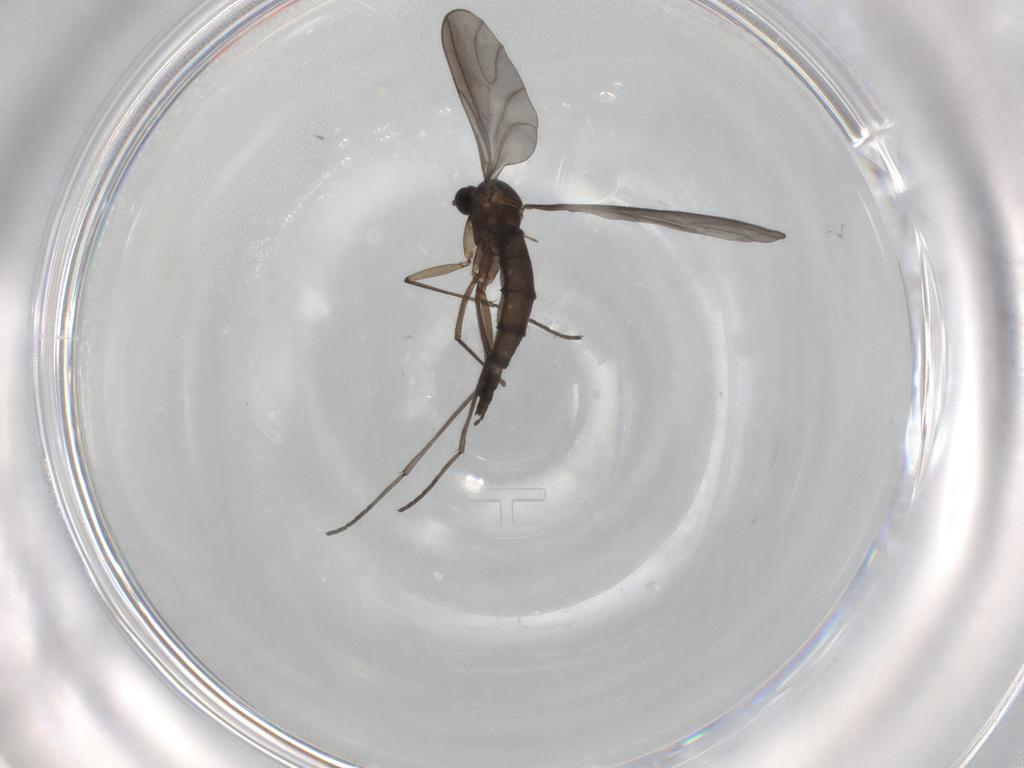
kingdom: Animalia
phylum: Arthropoda
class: Insecta
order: Diptera
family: Sciaridae
